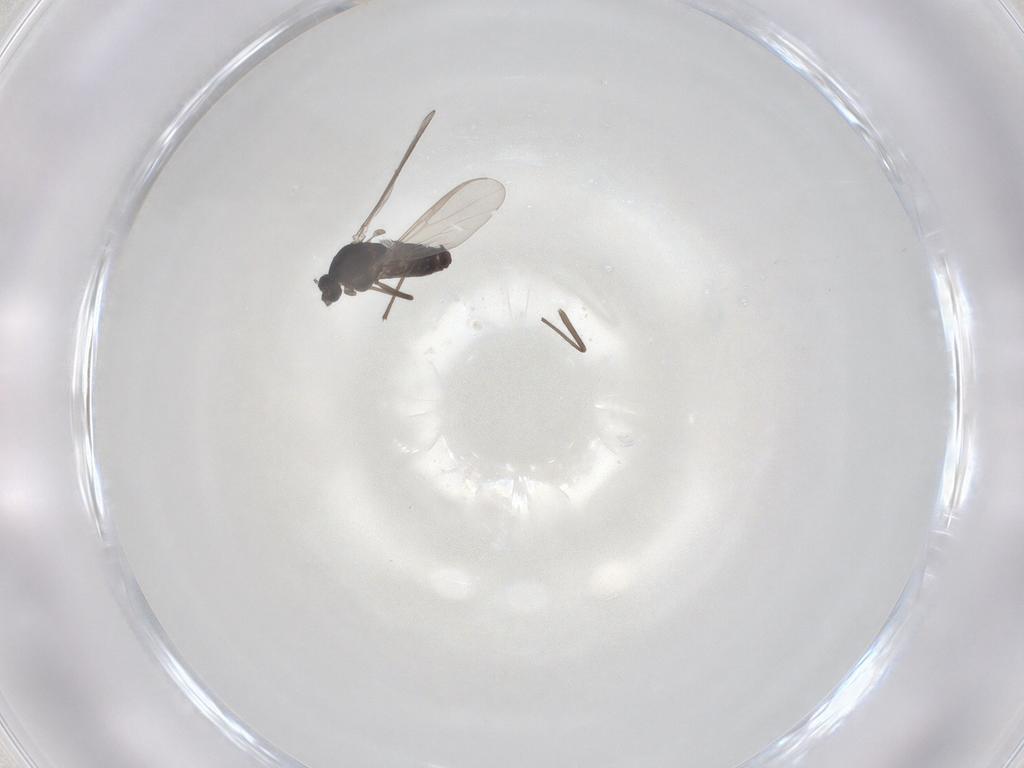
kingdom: Animalia
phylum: Arthropoda
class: Insecta
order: Diptera
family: Chironomidae
